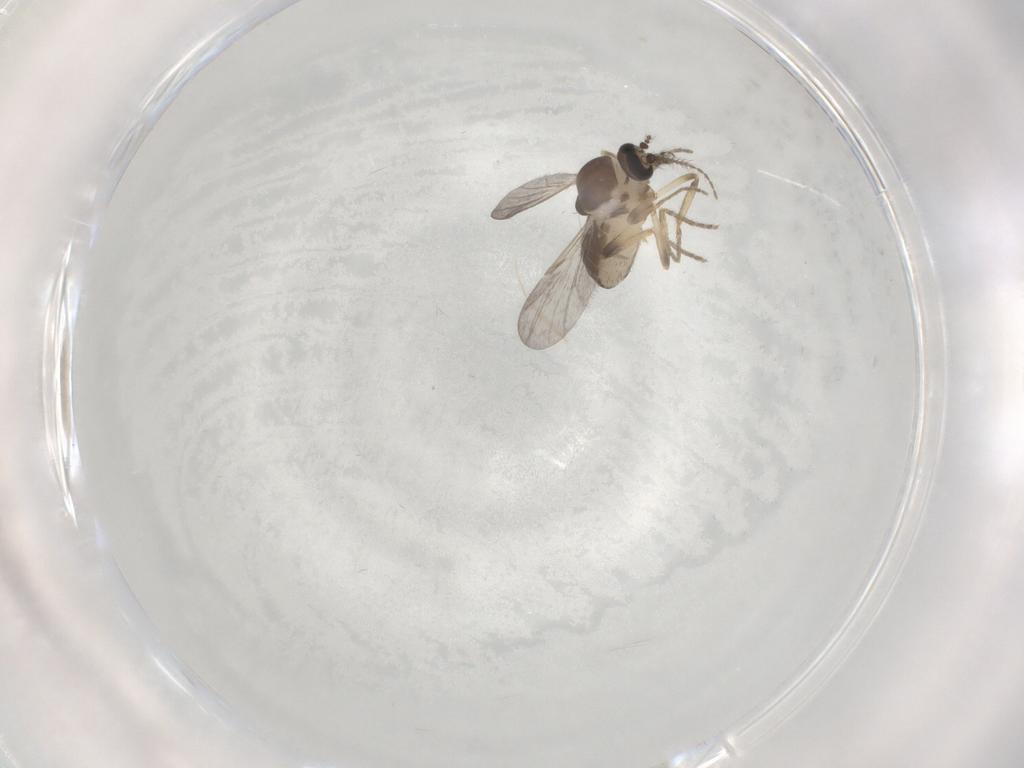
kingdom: Animalia
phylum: Arthropoda
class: Insecta
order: Diptera
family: Ceratopogonidae
